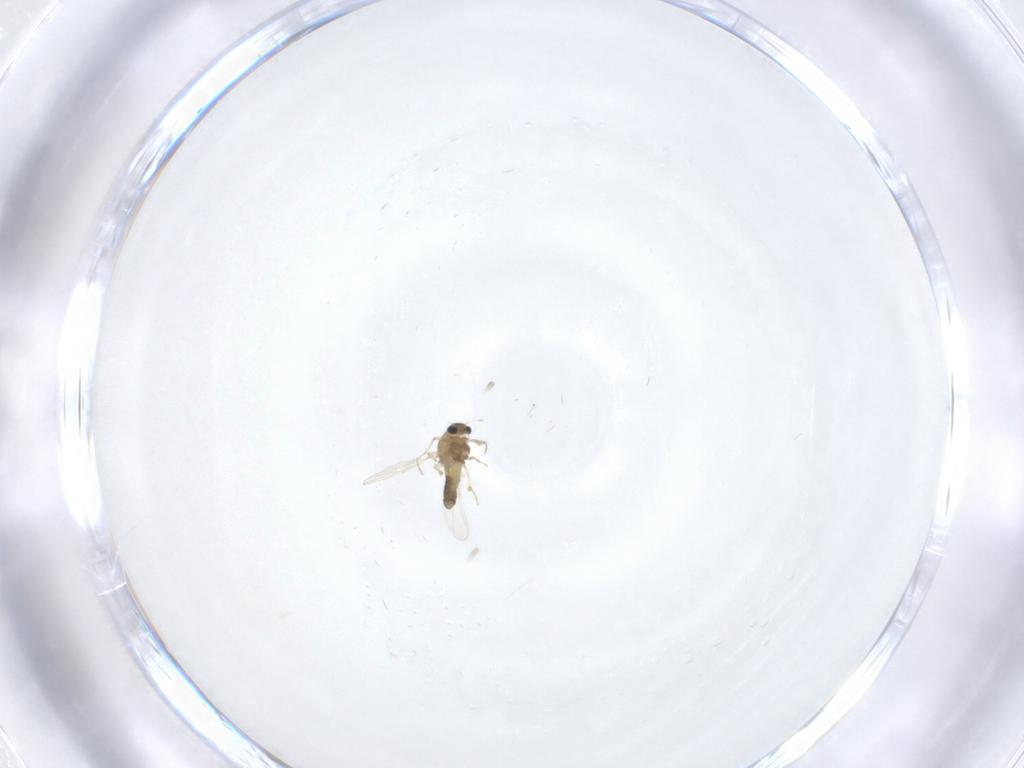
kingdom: Animalia
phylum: Arthropoda
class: Insecta
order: Diptera
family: Chironomidae
